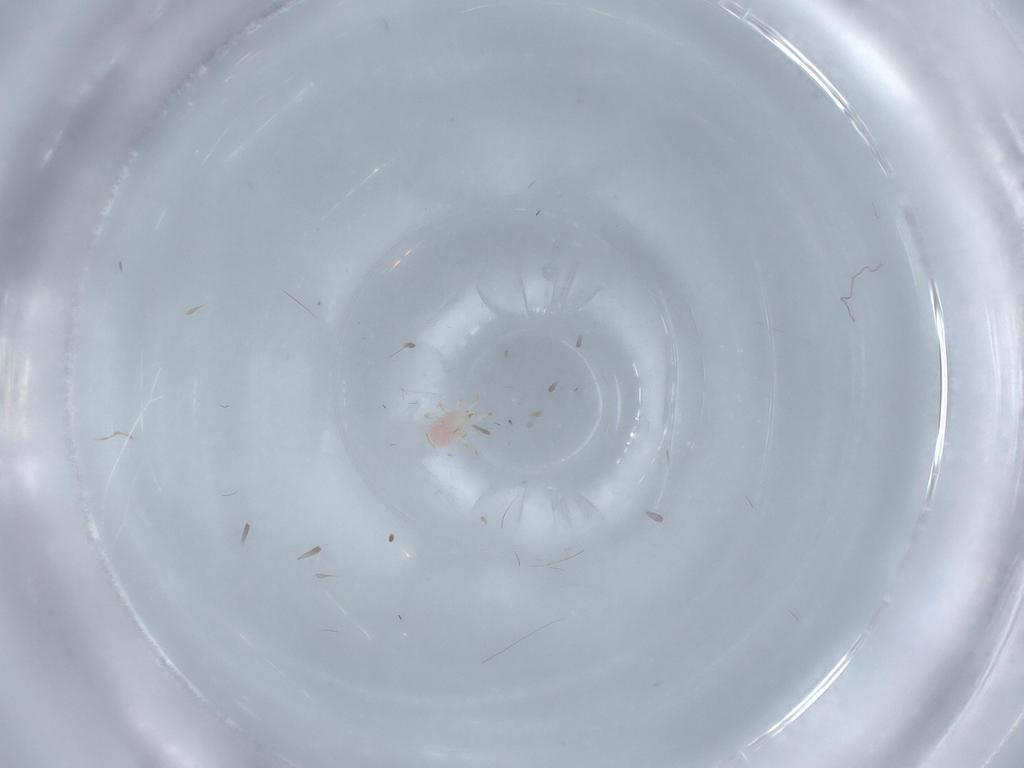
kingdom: Animalia
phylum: Arthropoda
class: Arachnida
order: Mesostigmata
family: Phytoseiidae
